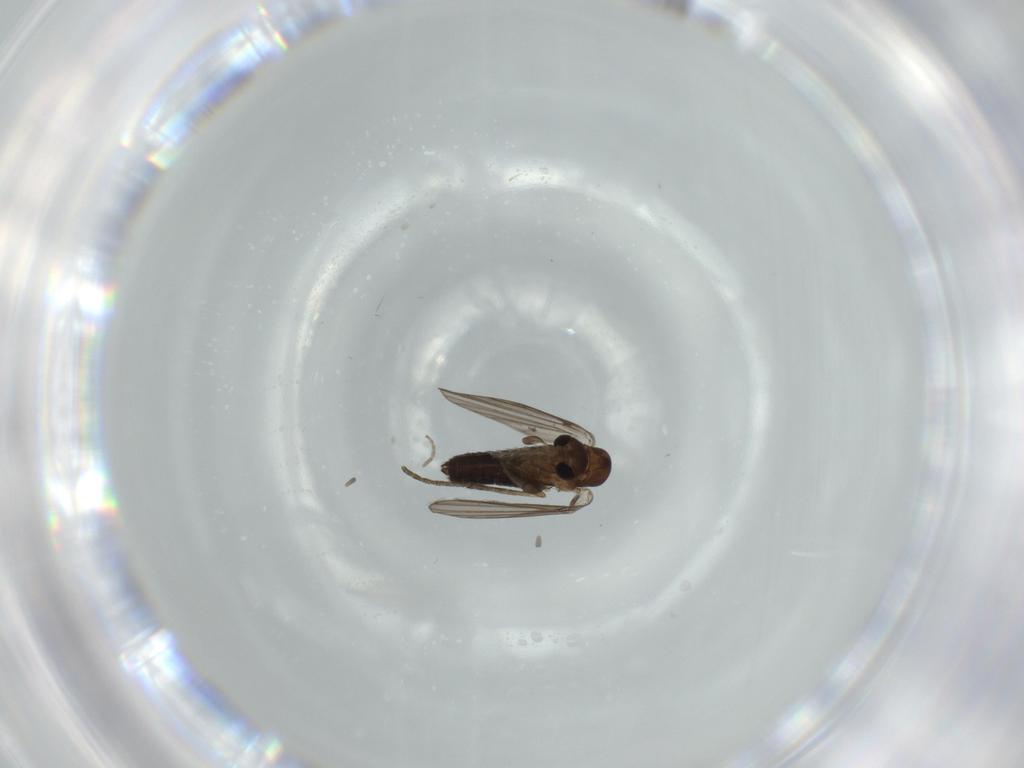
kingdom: Animalia
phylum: Arthropoda
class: Insecta
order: Diptera
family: Phoridae
